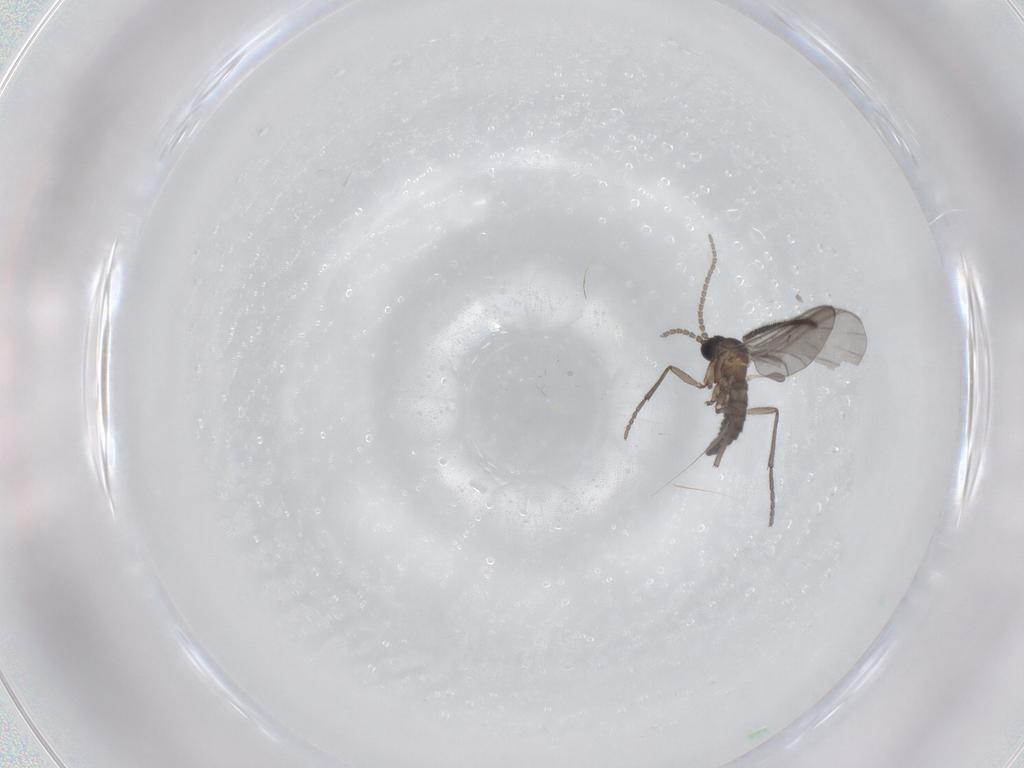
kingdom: Animalia
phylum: Arthropoda
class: Insecta
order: Diptera
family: Sciaridae
